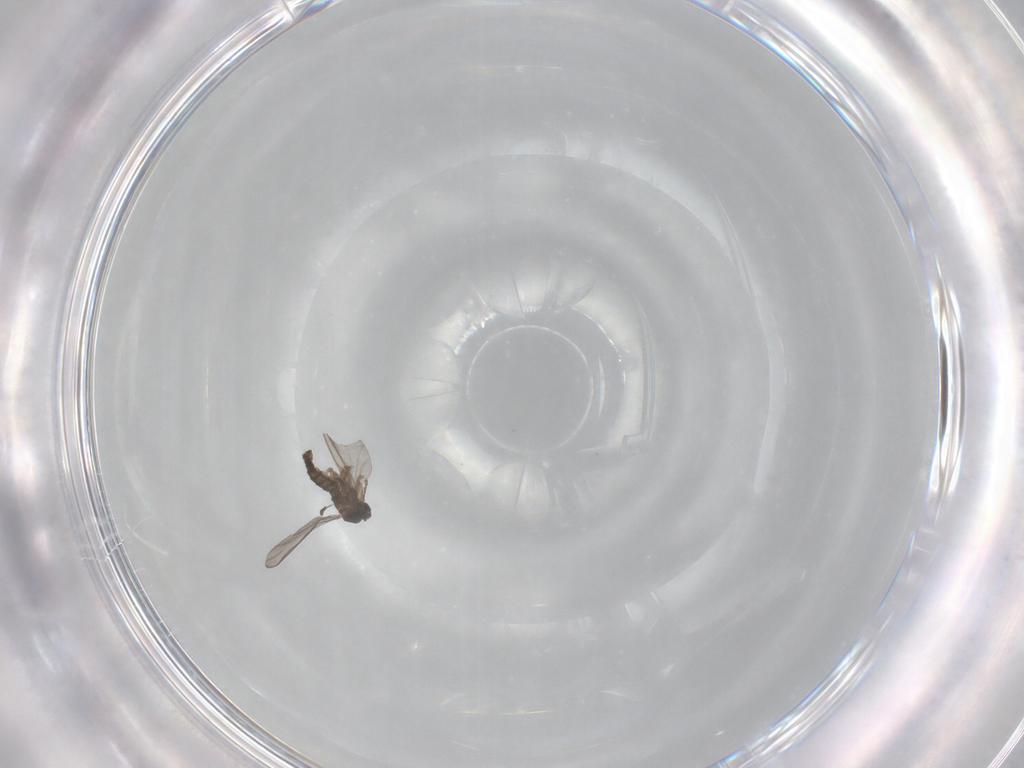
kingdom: Animalia
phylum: Arthropoda
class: Insecta
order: Diptera
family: Sciaridae
